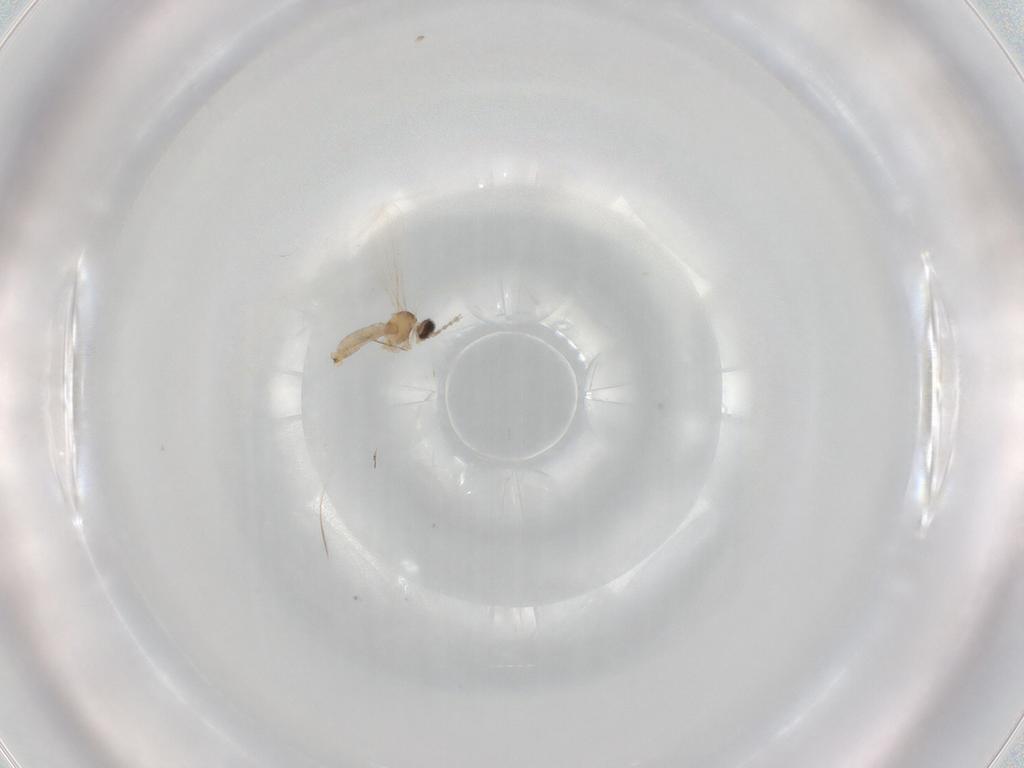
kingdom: Animalia
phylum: Arthropoda
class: Insecta
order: Diptera
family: Cecidomyiidae
